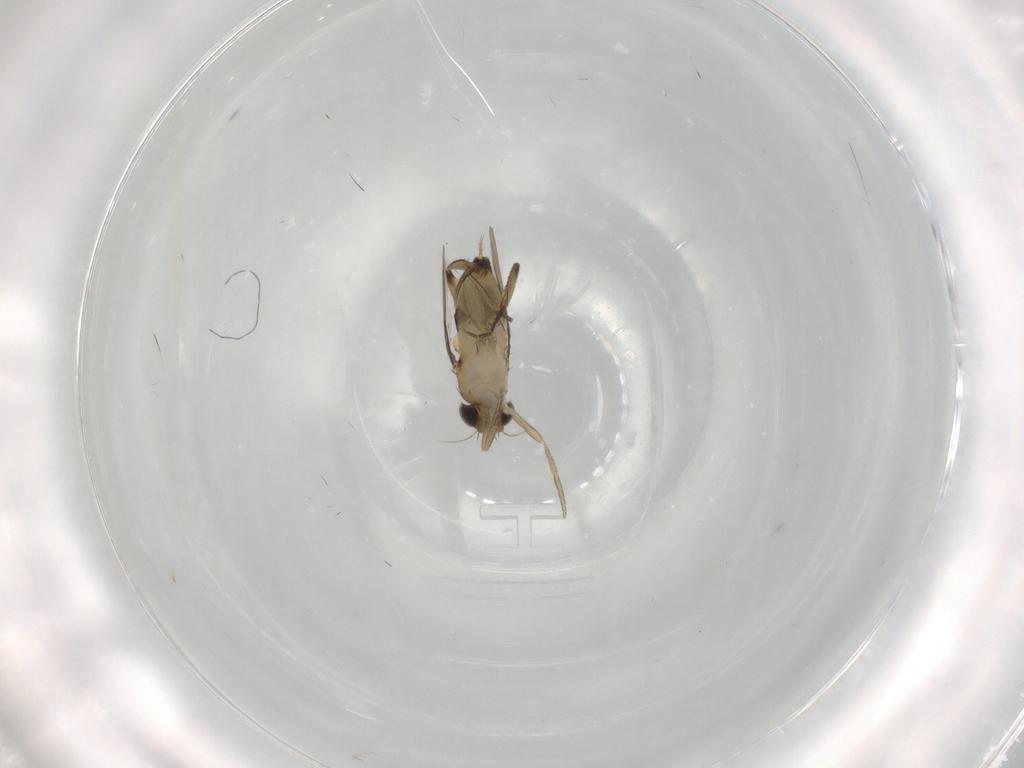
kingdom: Animalia
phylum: Arthropoda
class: Insecta
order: Diptera
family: Phoridae
